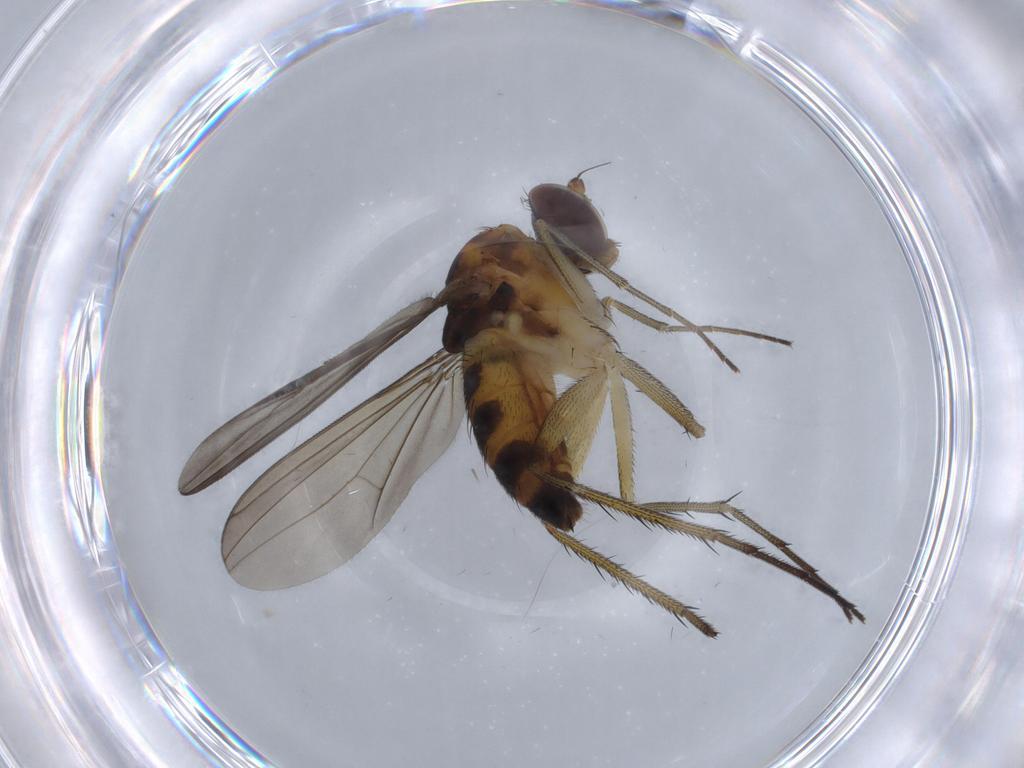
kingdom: Animalia
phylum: Arthropoda
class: Insecta
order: Diptera
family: Dolichopodidae
